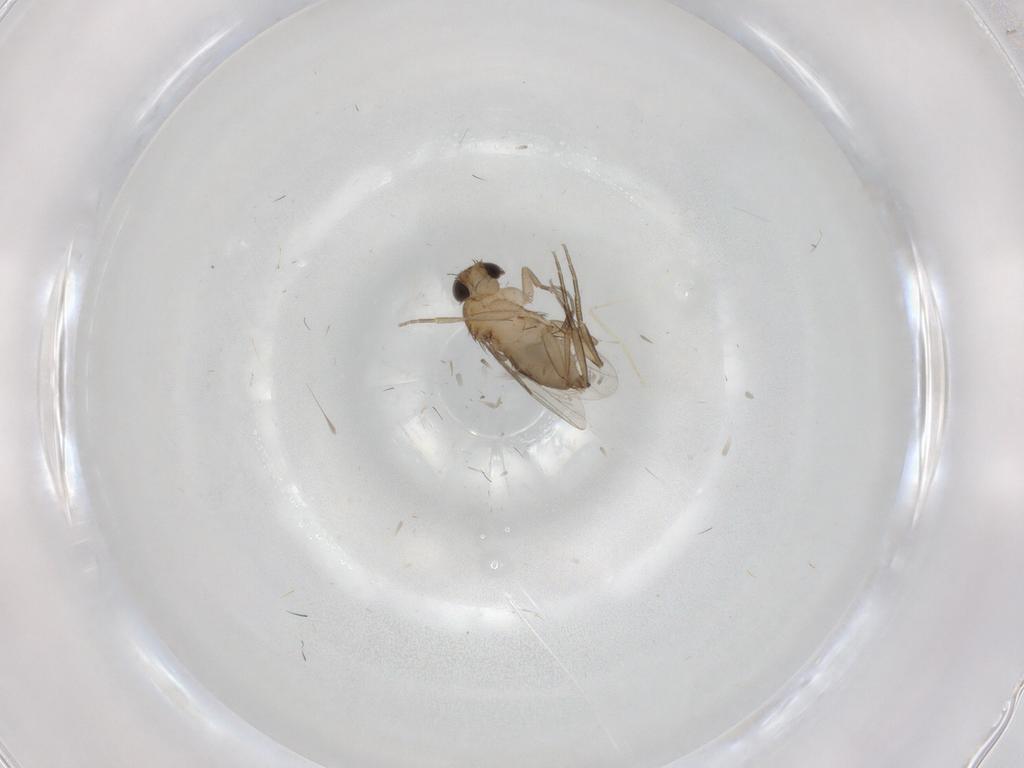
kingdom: Animalia
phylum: Arthropoda
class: Insecta
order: Diptera
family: Phoridae
